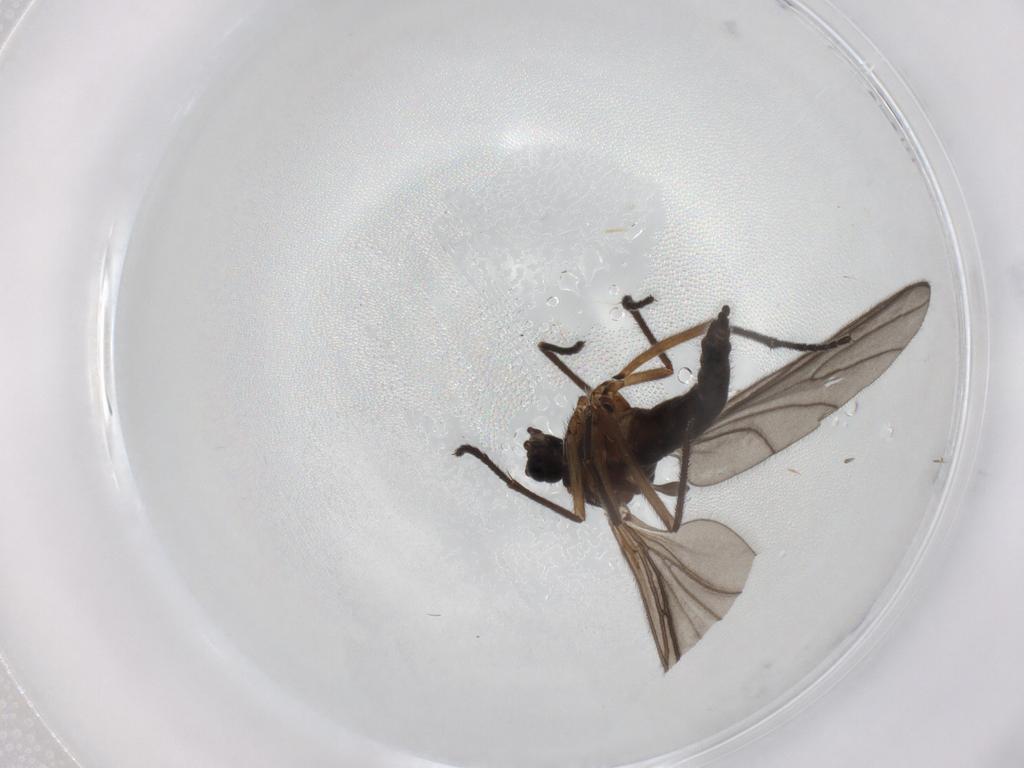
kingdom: Animalia
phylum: Arthropoda
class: Insecta
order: Diptera
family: Sciaridae
